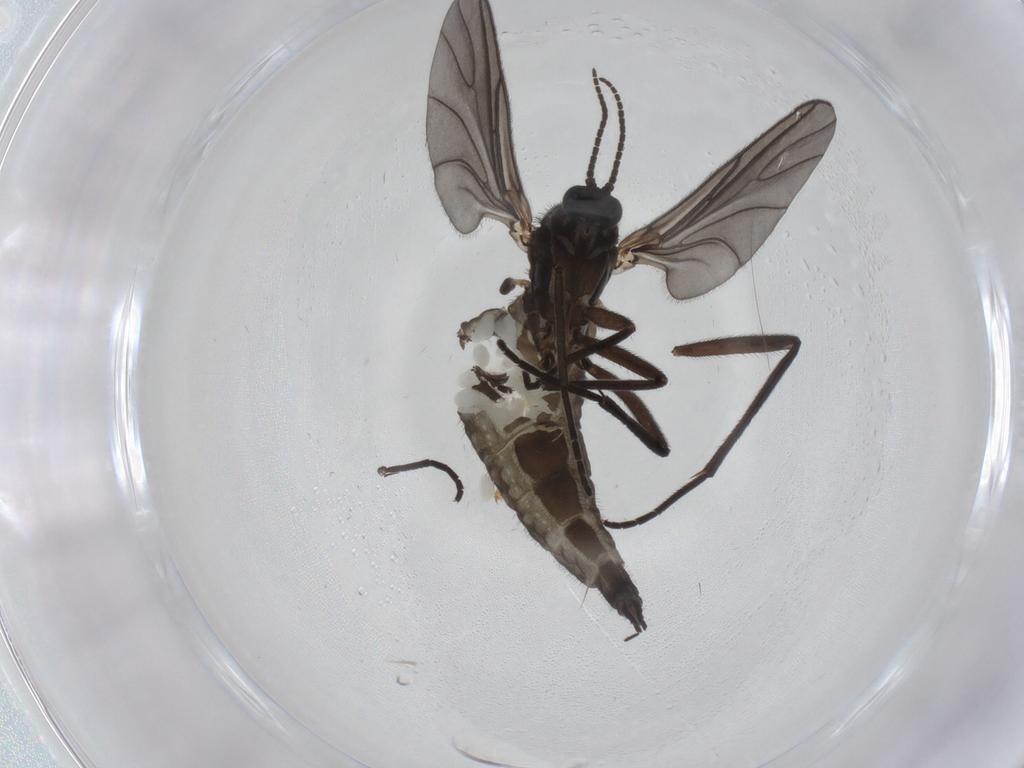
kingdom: Animalia
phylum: Arthropoda
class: Insecta
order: Diptera
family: Sciaridae
